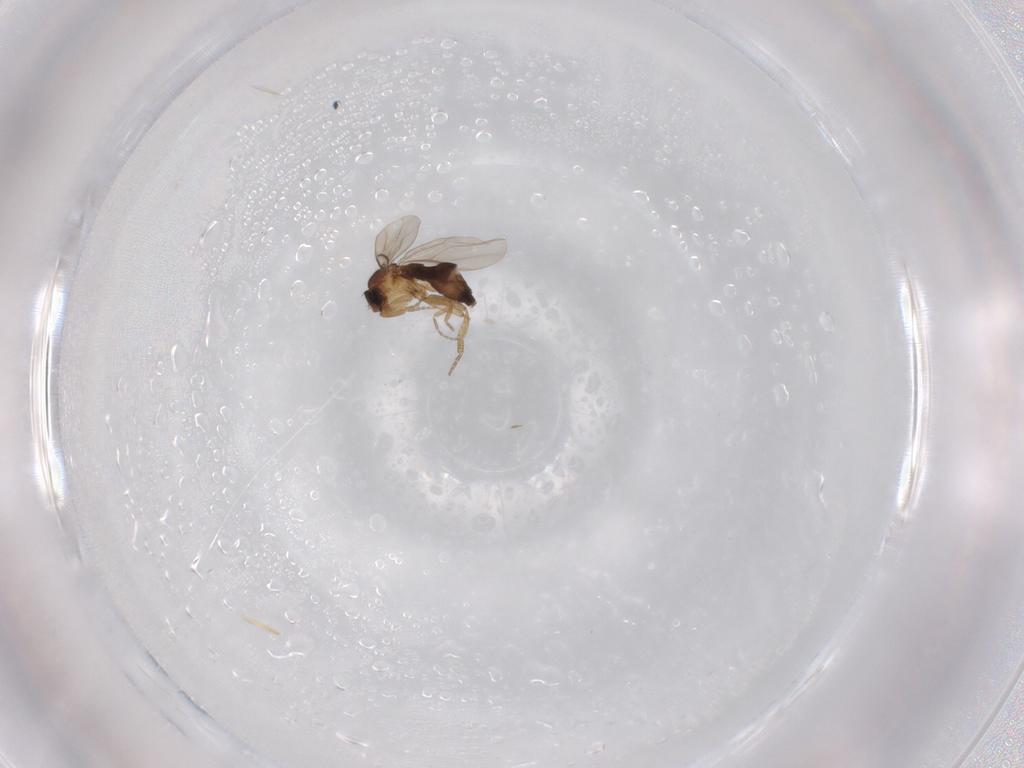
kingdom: Animalia
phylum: Arthropoda
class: Insecta
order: Diptera
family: Phoridae
